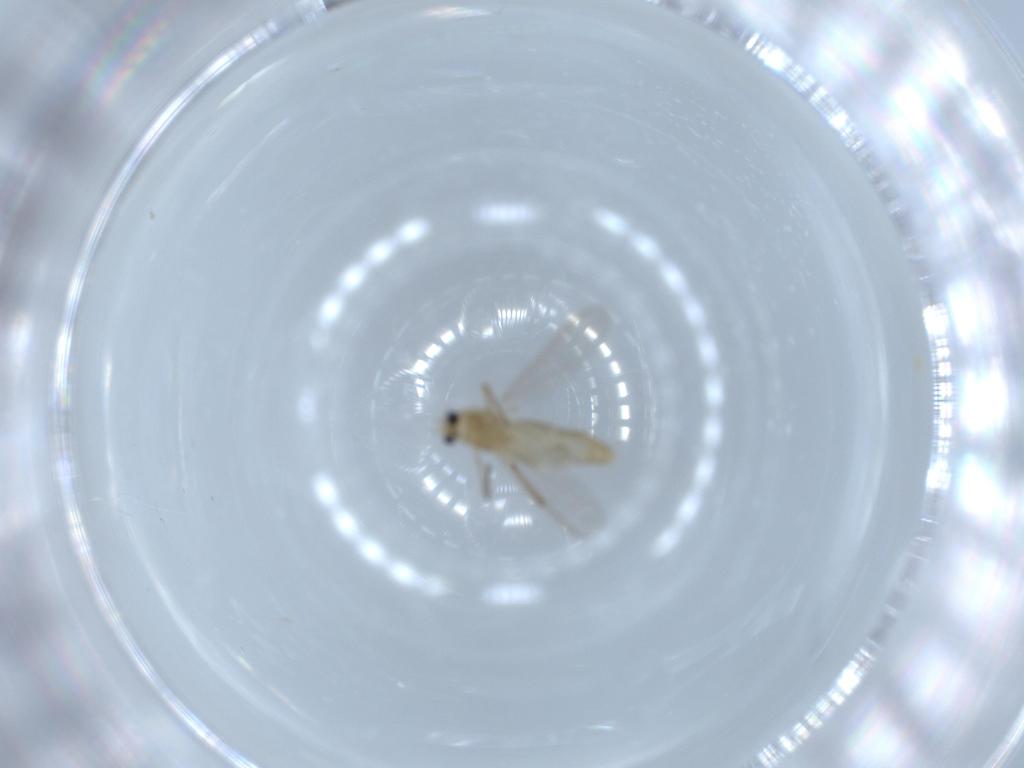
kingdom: Animalia
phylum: Arthropoda
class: Insecta
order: Diptera
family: Chironomidae
